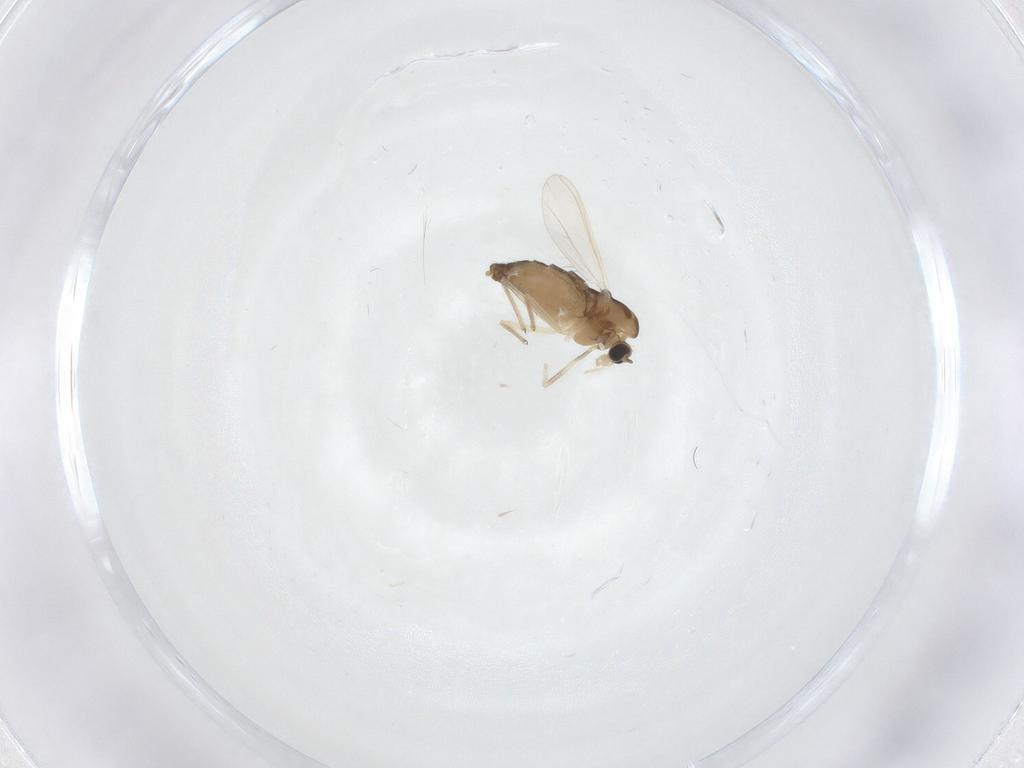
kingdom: Animalia
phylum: Arthropoda
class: Insecta
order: Diptera
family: Chironomidae
